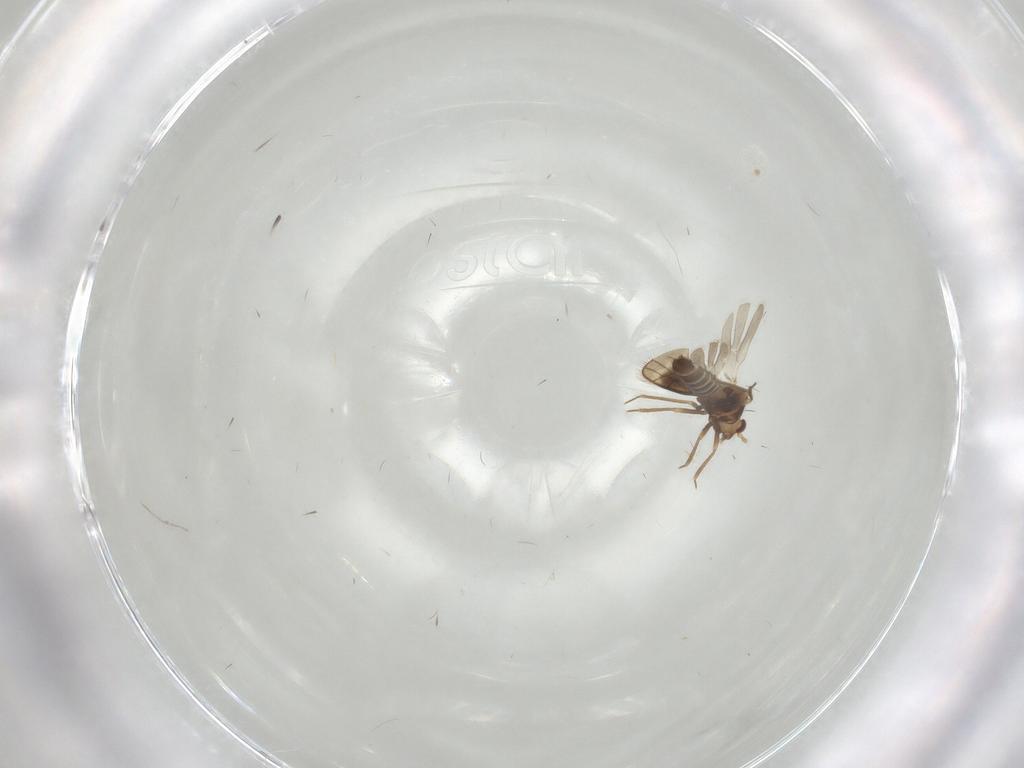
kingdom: Animalia
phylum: Arthropoda
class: Insecta
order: Hemiptera
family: Schizopteridae
